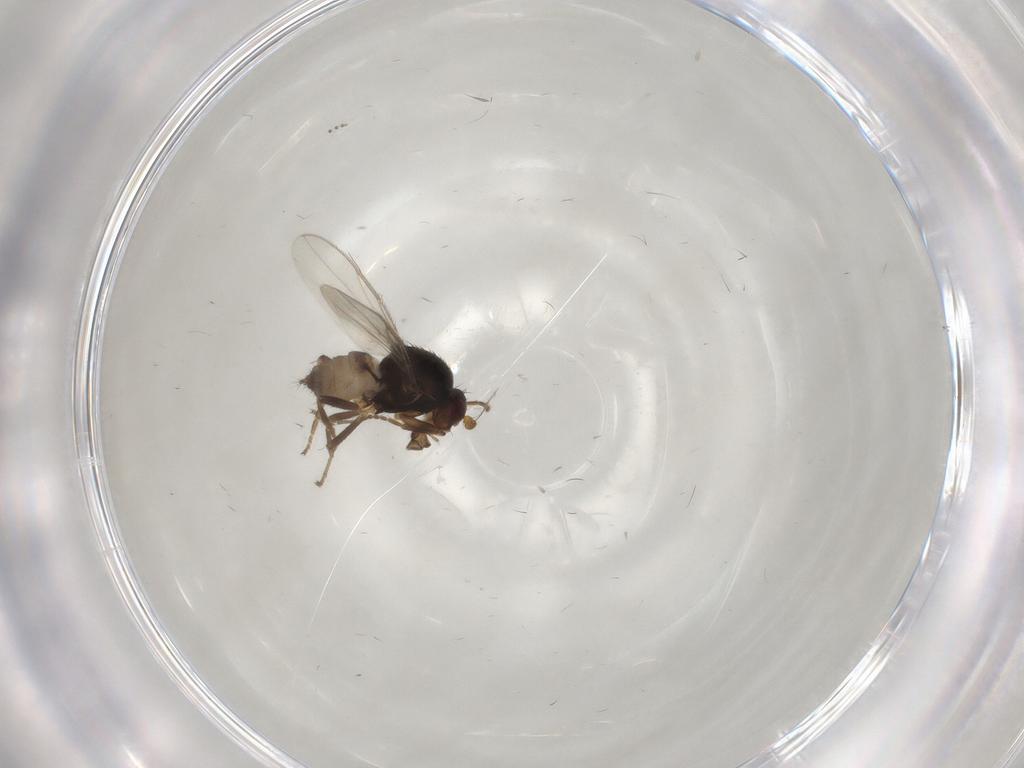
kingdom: Animalia
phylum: Arthropoda
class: Insecta
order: Diptera
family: Sphaeroceridae
